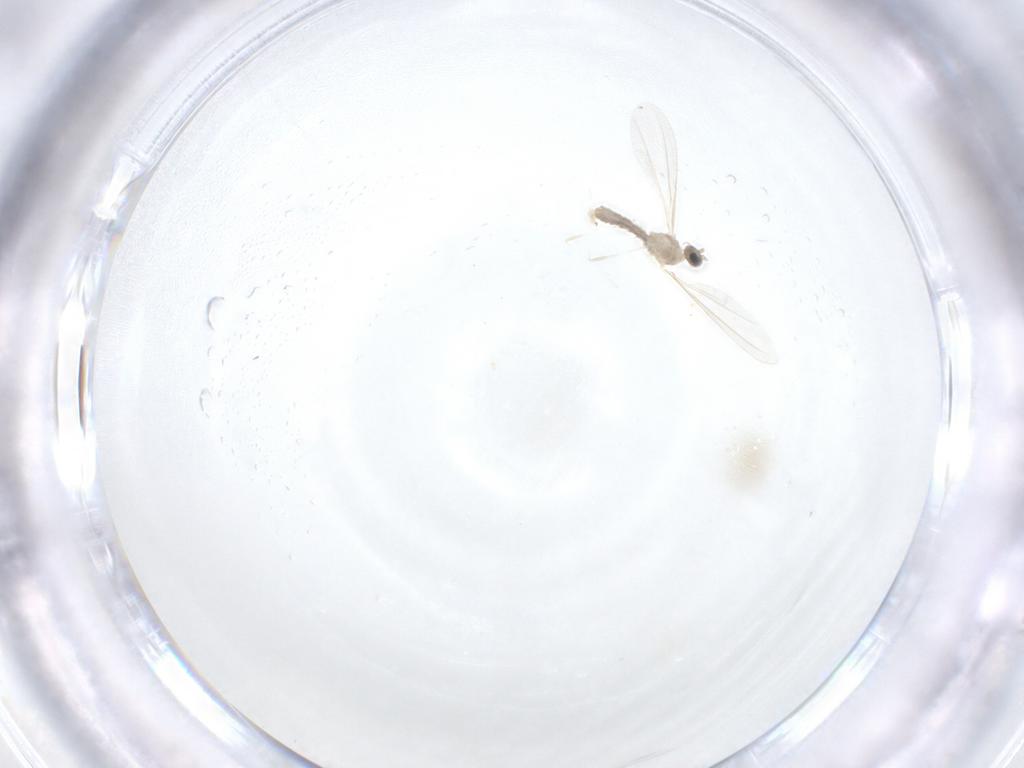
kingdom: Animalia
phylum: Arthropoda
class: Insecta
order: Diptera
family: Cecidomyiidae
